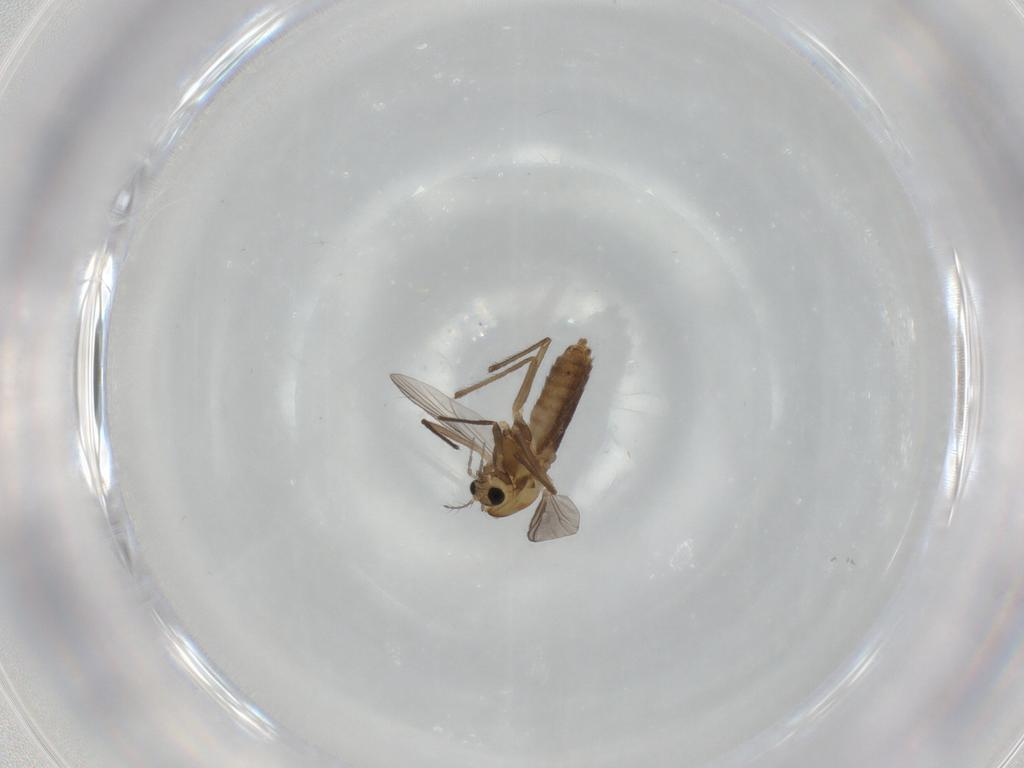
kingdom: Animalia
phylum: Arthropoda
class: Insecta
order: Diptera
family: Chironomidae
